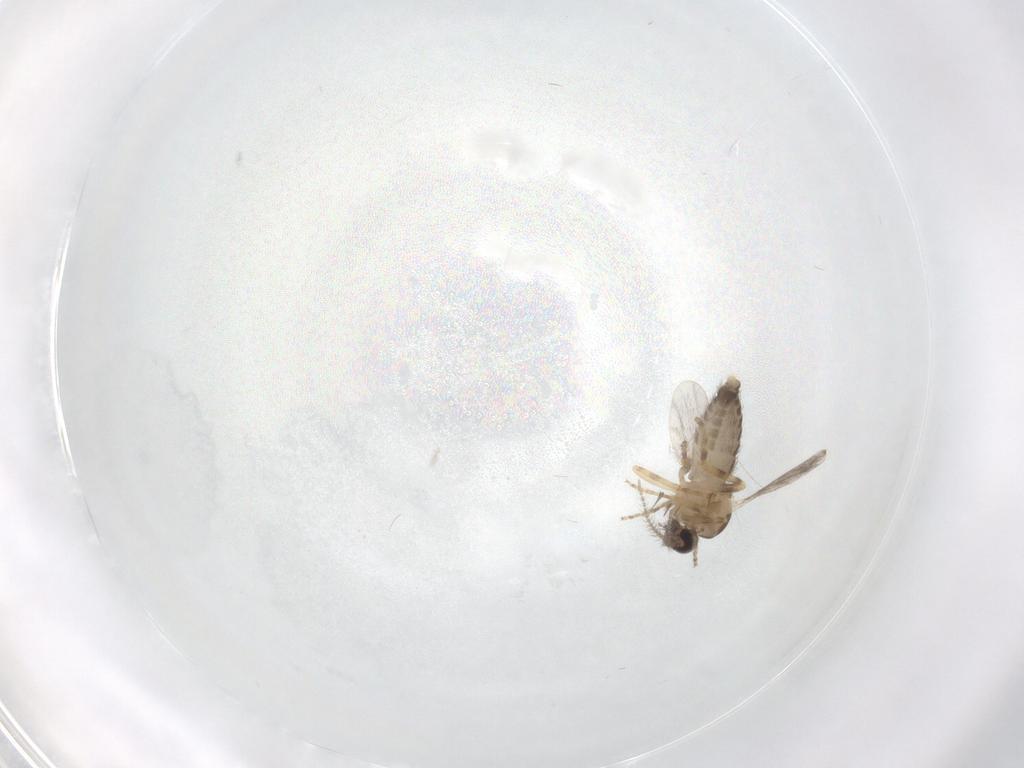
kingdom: Animalia
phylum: Arthropoda
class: Insecta
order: Diptera
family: Ceratopogonidae
